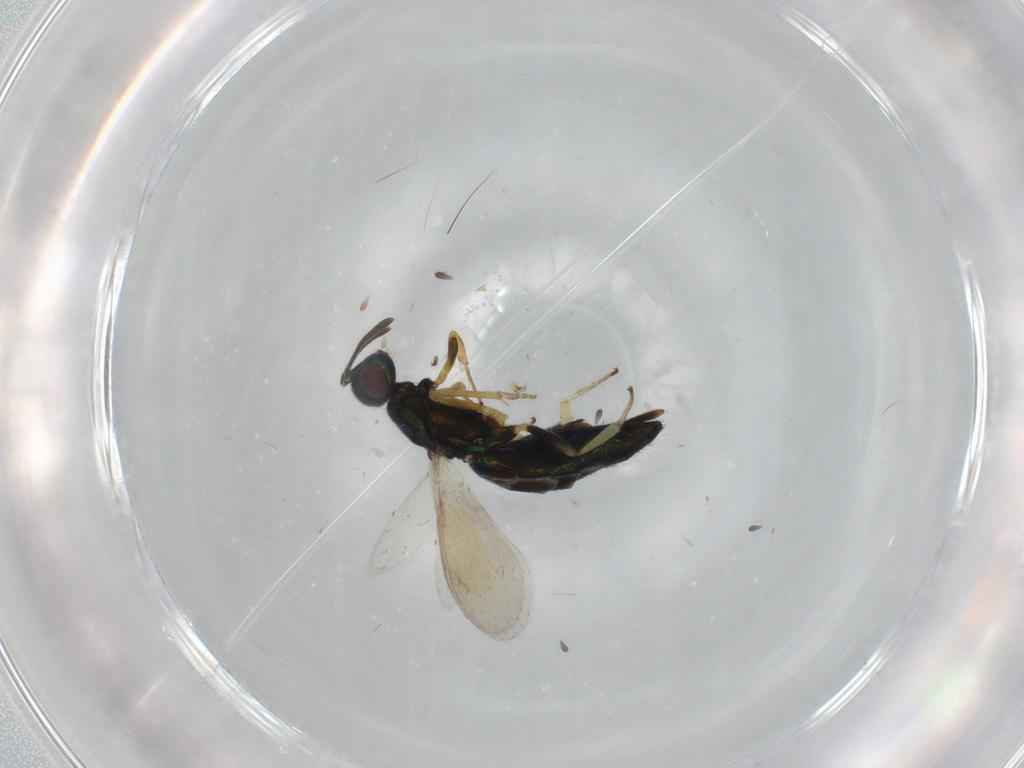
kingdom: Animalia
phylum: Arthropoda
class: Insecta
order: Hymenoptera
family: Eupelmidae
